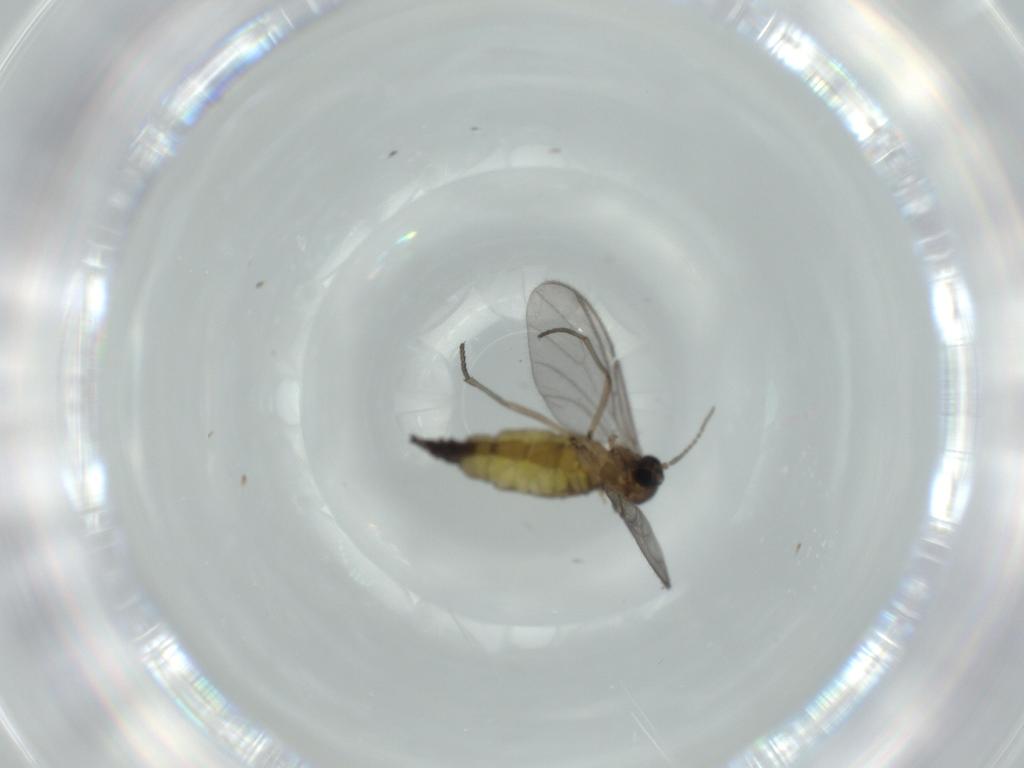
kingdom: Animalia
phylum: Arthropoda
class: Insecta
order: Diptera
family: Sciaridae
